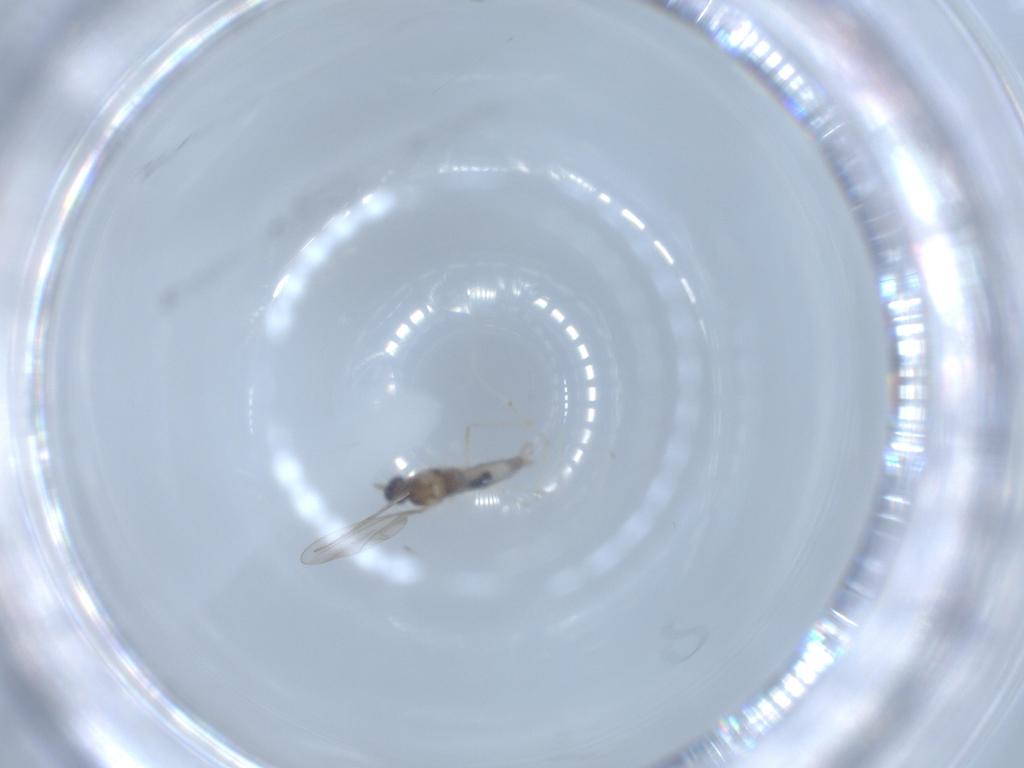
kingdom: Animalia
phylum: Arthropoda
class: Insecta
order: Diptera
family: Cecidomyiidae
